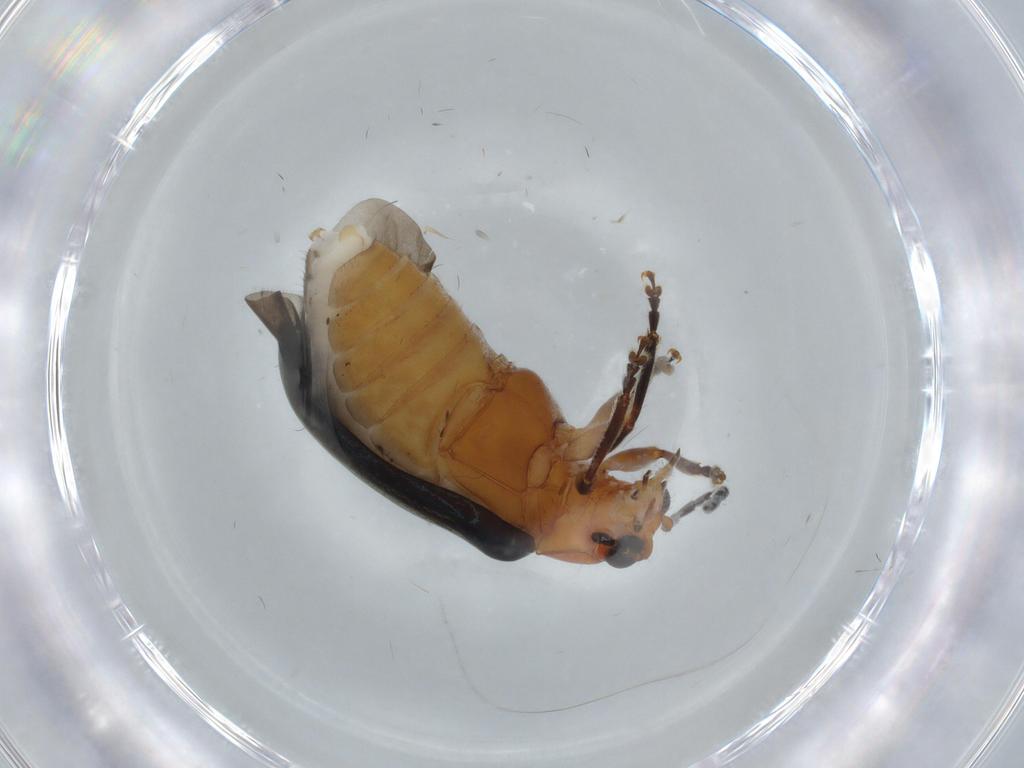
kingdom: Animalia
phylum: Arthropoda
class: Insecta
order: Coleoptera
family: Chrysomelidae
